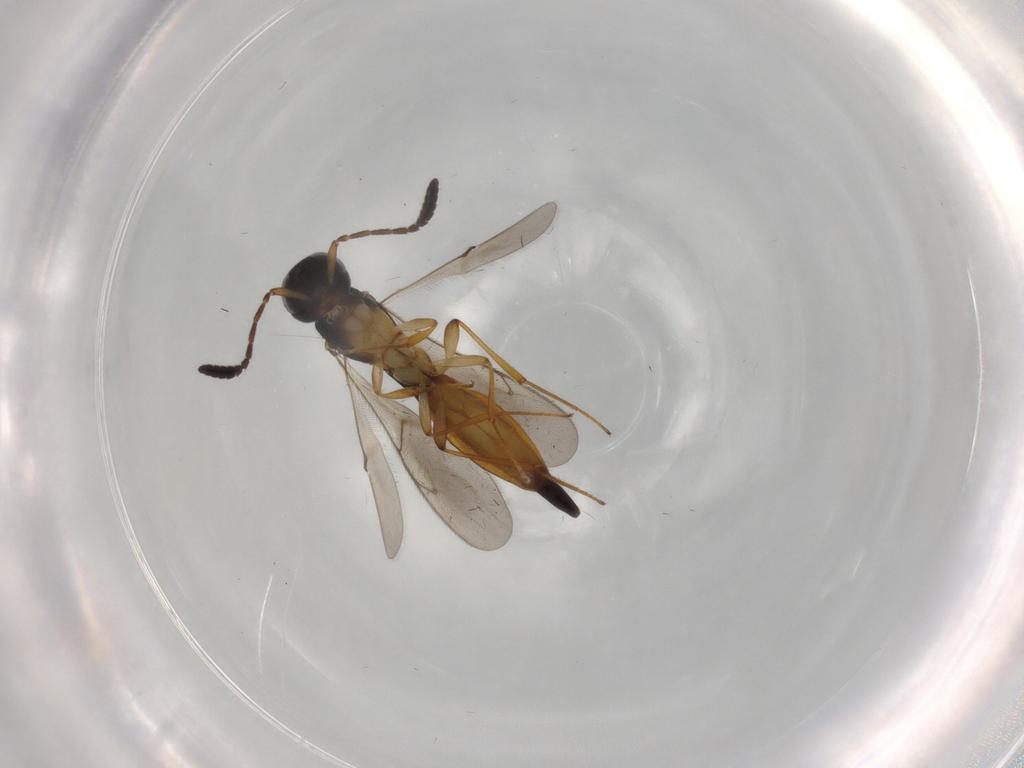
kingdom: Animalia
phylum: Arthropoda
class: Insecta
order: Hymenoptera
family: Scelionidae
